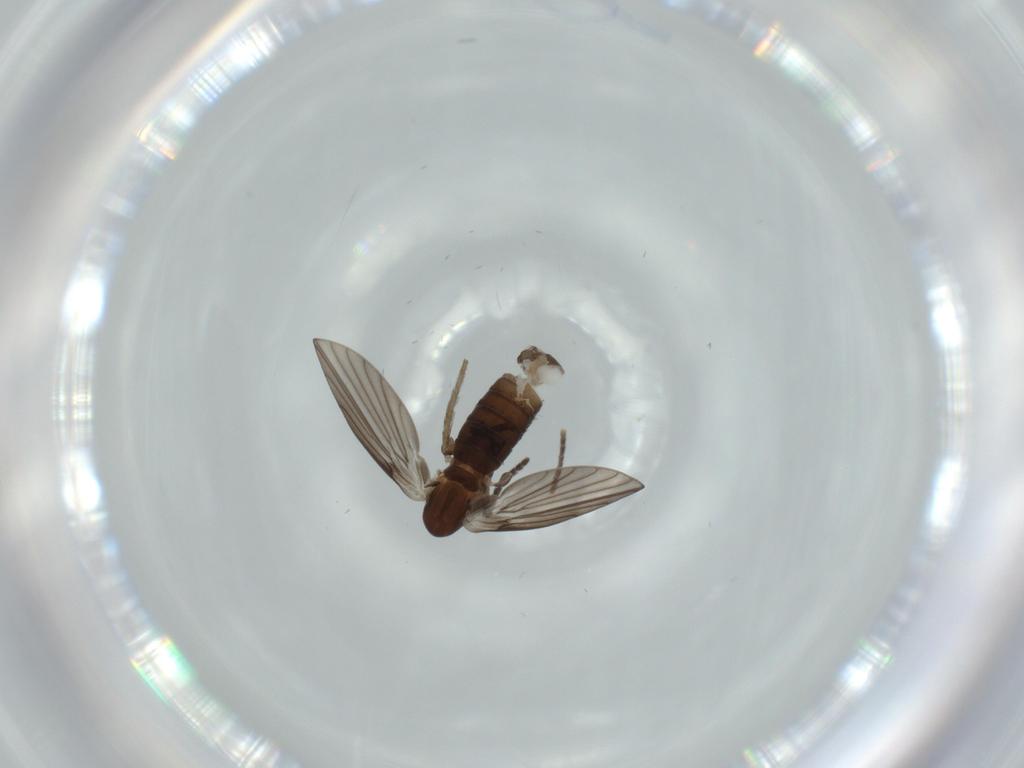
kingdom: Animalia
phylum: Arthropoda
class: Insecta
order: Diptera
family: Sciaridae
